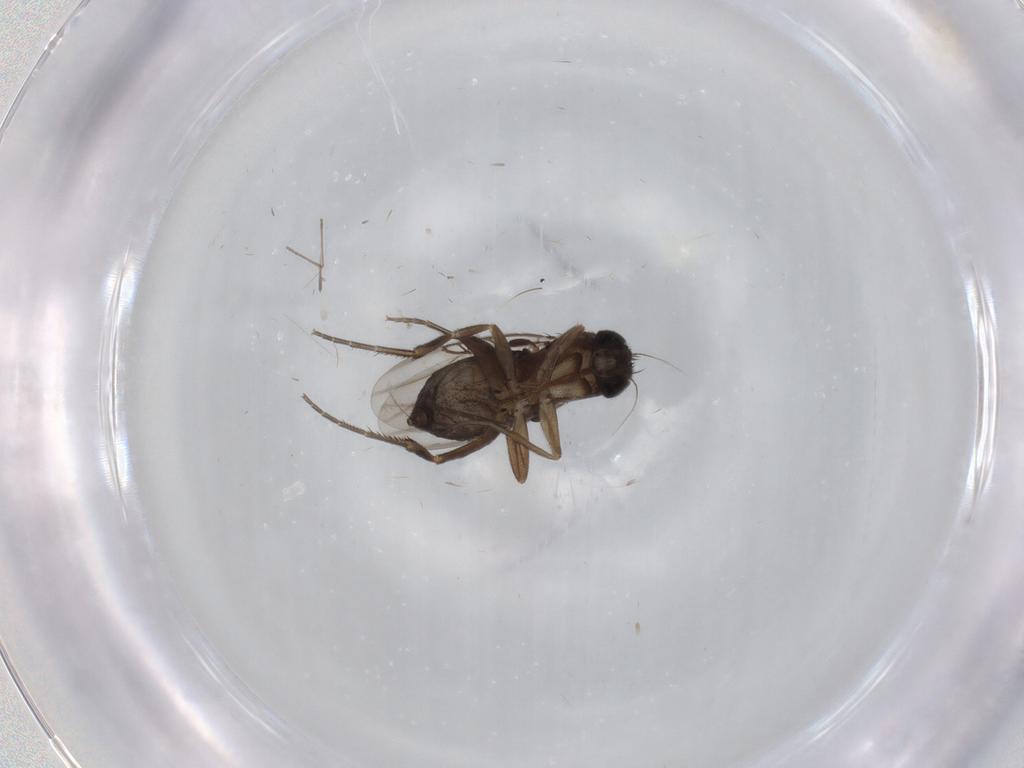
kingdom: Animalia
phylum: Arthropoda
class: Insecta
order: Diptera
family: Phoridae
